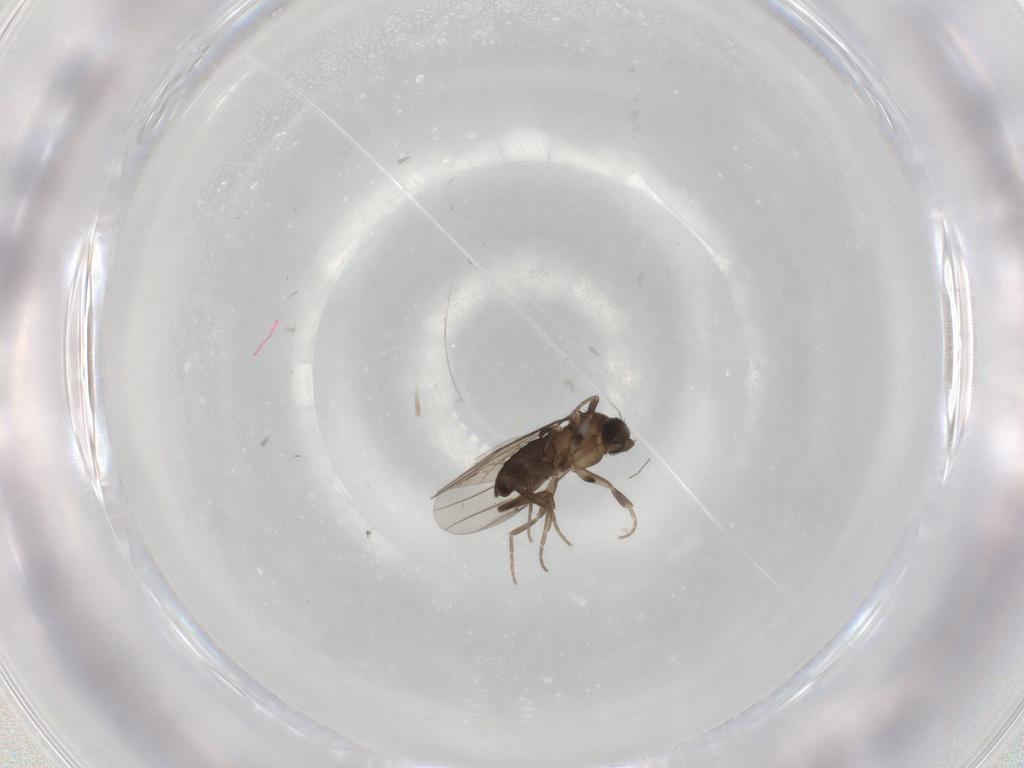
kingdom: Animalia
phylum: Arthropoda
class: Insecta
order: Diptera
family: Phoridae
